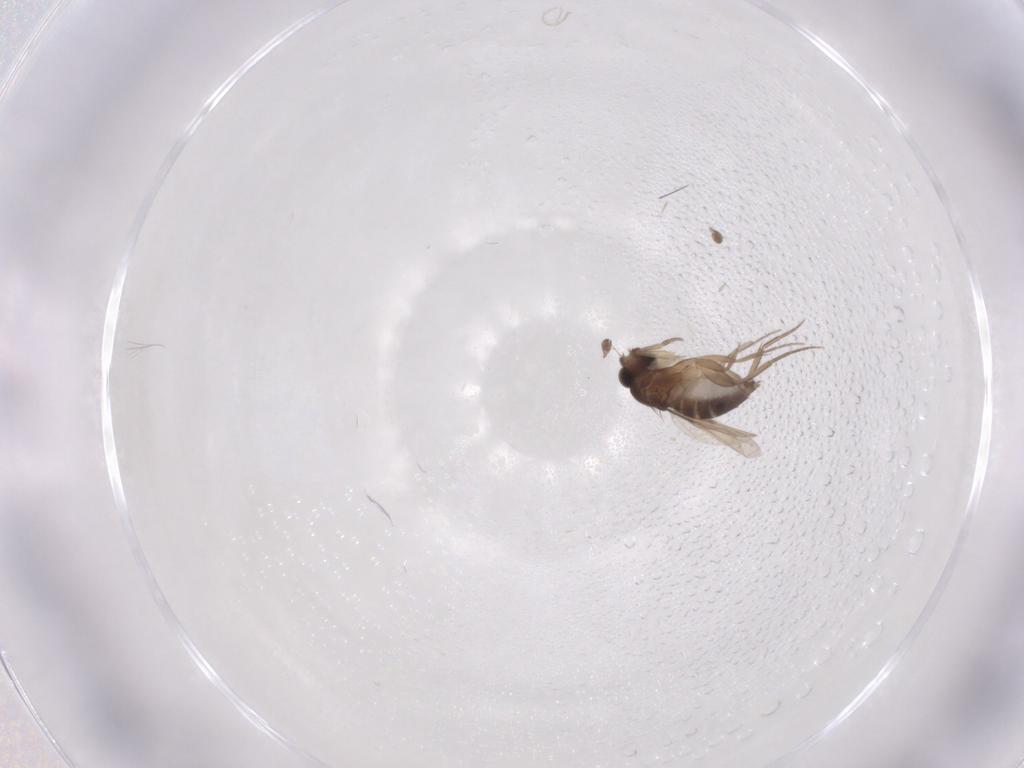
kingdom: Animalia
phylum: Arthropoda
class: Insecta
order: Diptera
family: Phoridae
